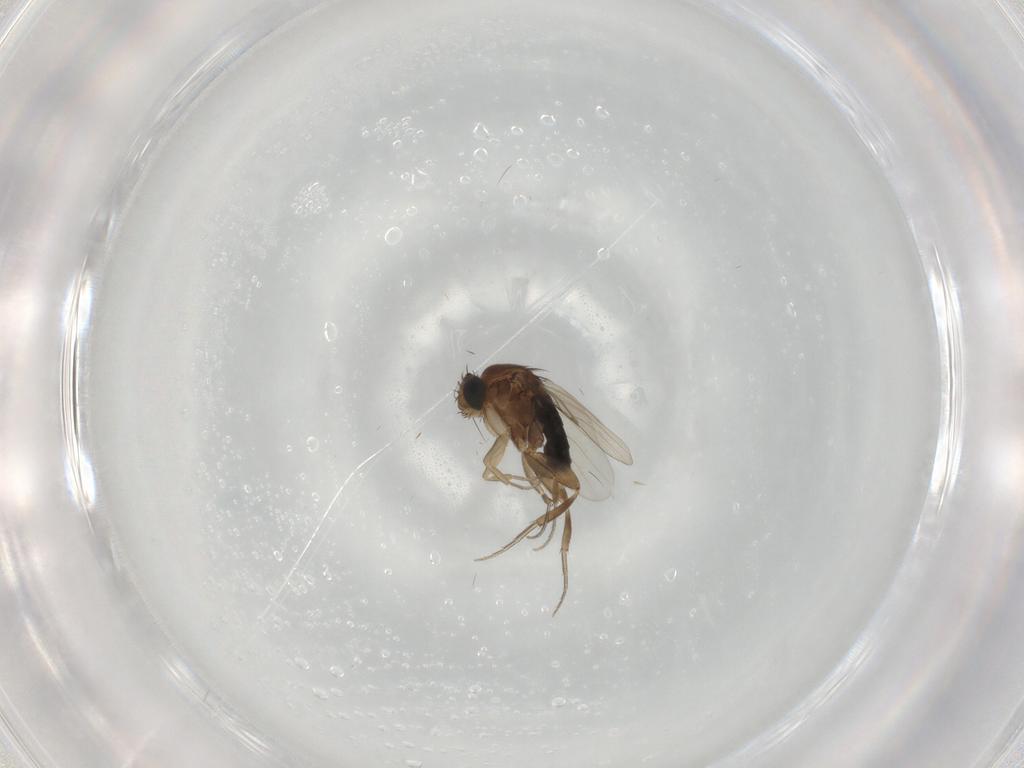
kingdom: Animalia
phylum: Arthropoda
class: Insecta
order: Diptera
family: Phoridae
